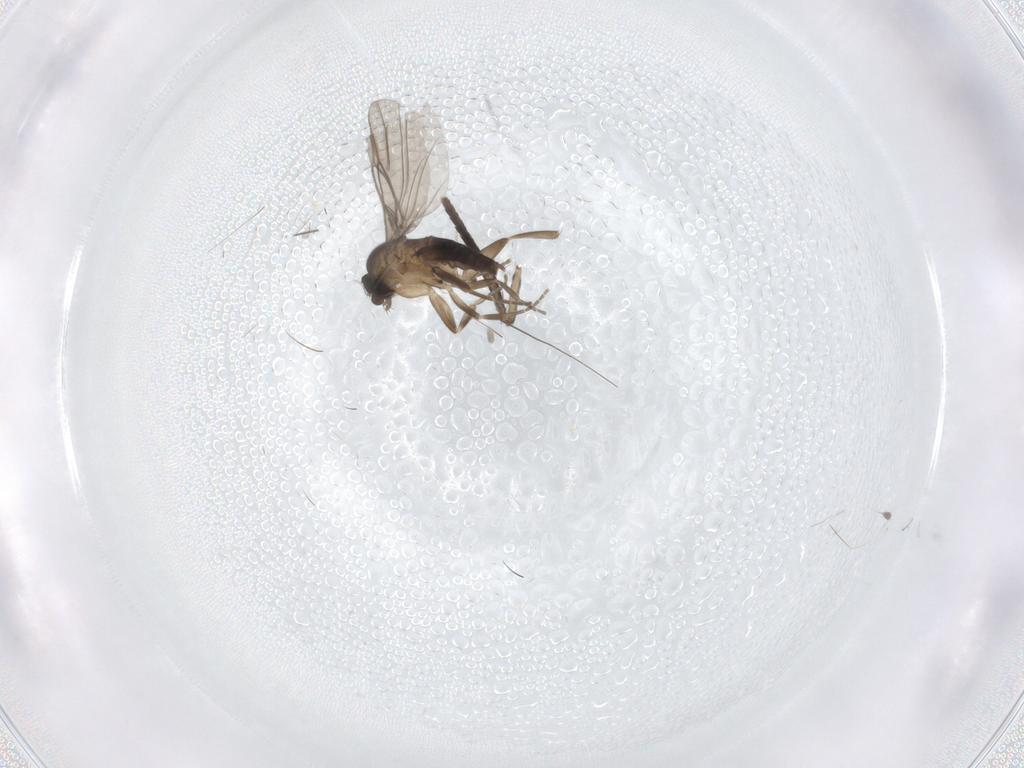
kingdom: Animalia
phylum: Arthropoda
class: Insecta
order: Diptera
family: Psychodidae
